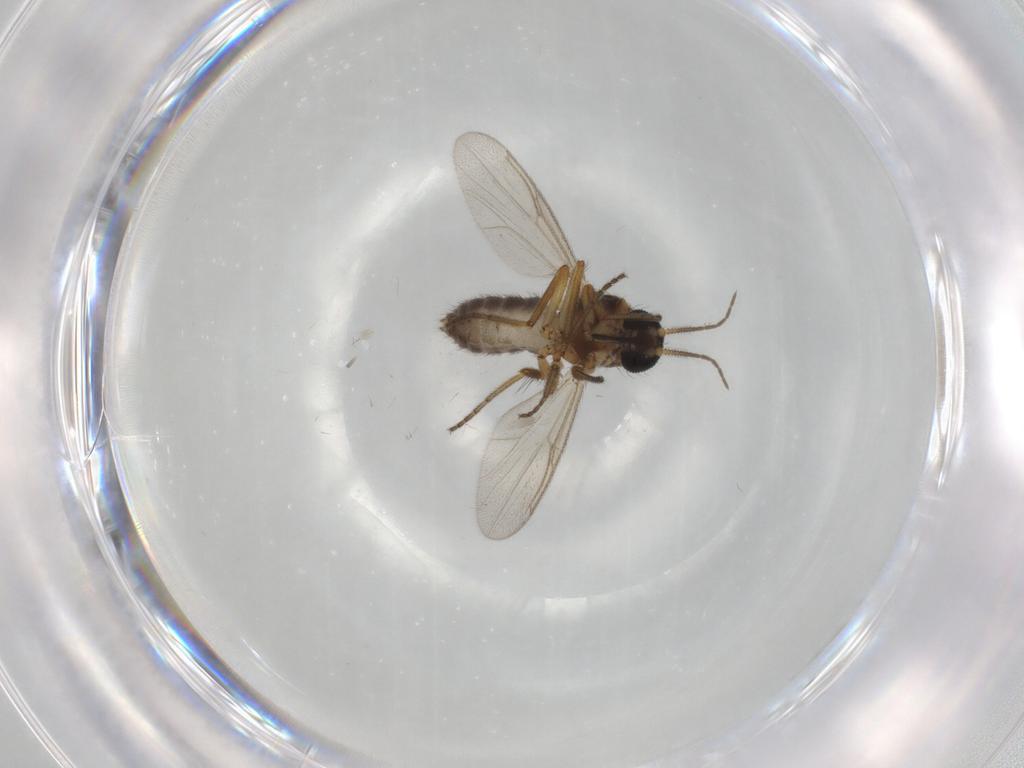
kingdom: Animalia
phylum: Arthropoda
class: Insecta
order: Diptera
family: Ceratopogonidae
